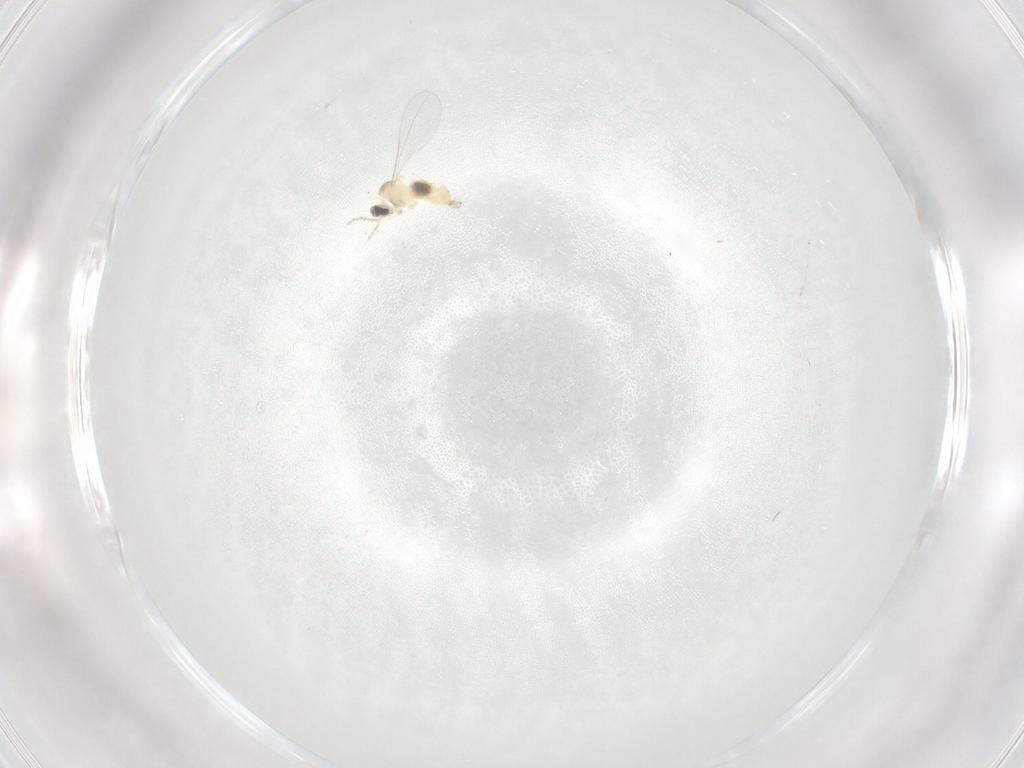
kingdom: Animalia
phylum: Arthropoda
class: Insecta
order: Diptera
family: Cecidomyiidae
